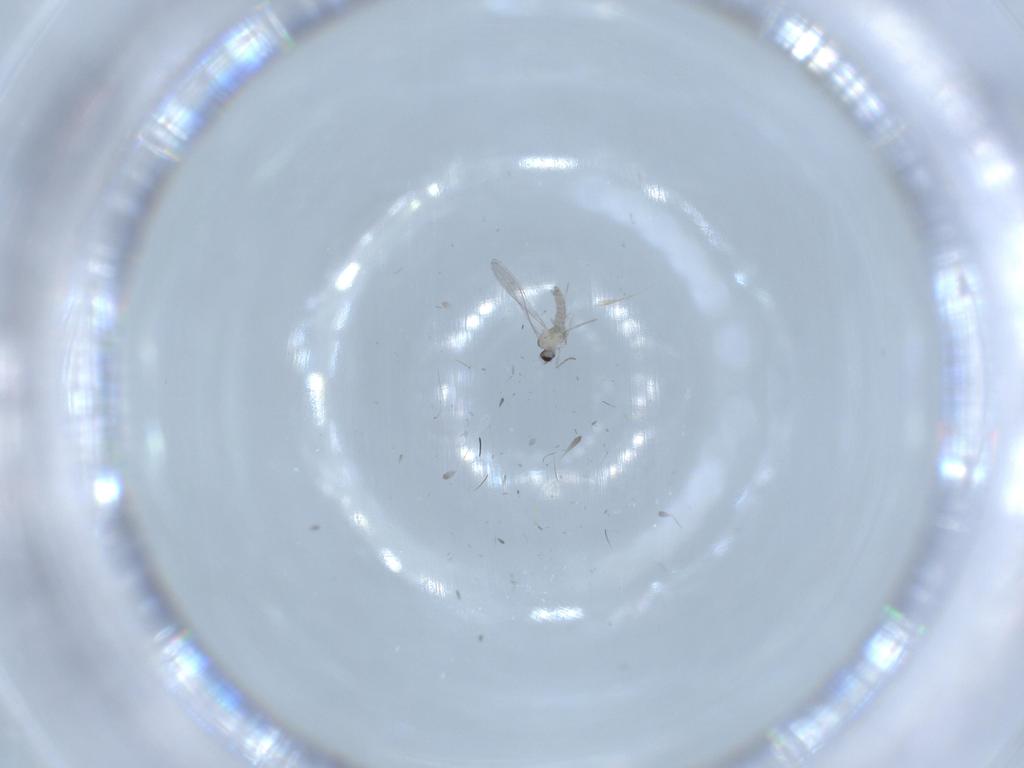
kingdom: Animalia
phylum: Arthropoda
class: Insecta
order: Diptera
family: Cecidomyiidae
